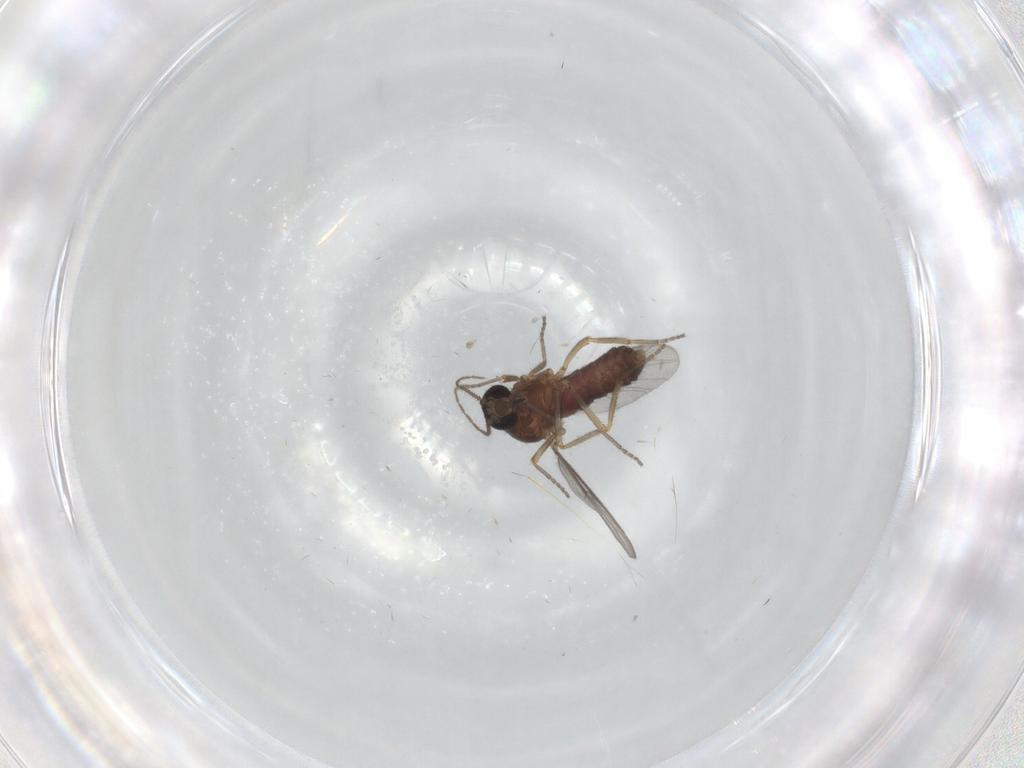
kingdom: Animalia
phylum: Arthropoda
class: Insecta
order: Diptera
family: Ceratopogonidae
